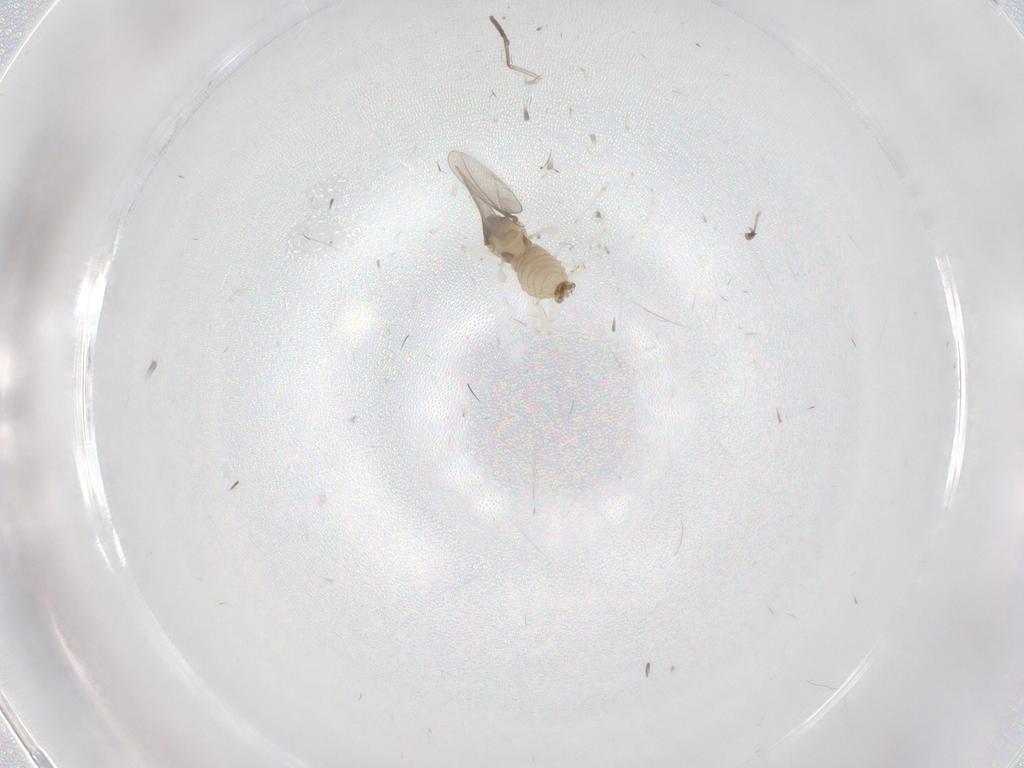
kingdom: Animalia
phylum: Arthropoda
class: Insecta
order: Diptera
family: Cecidomyiidae
